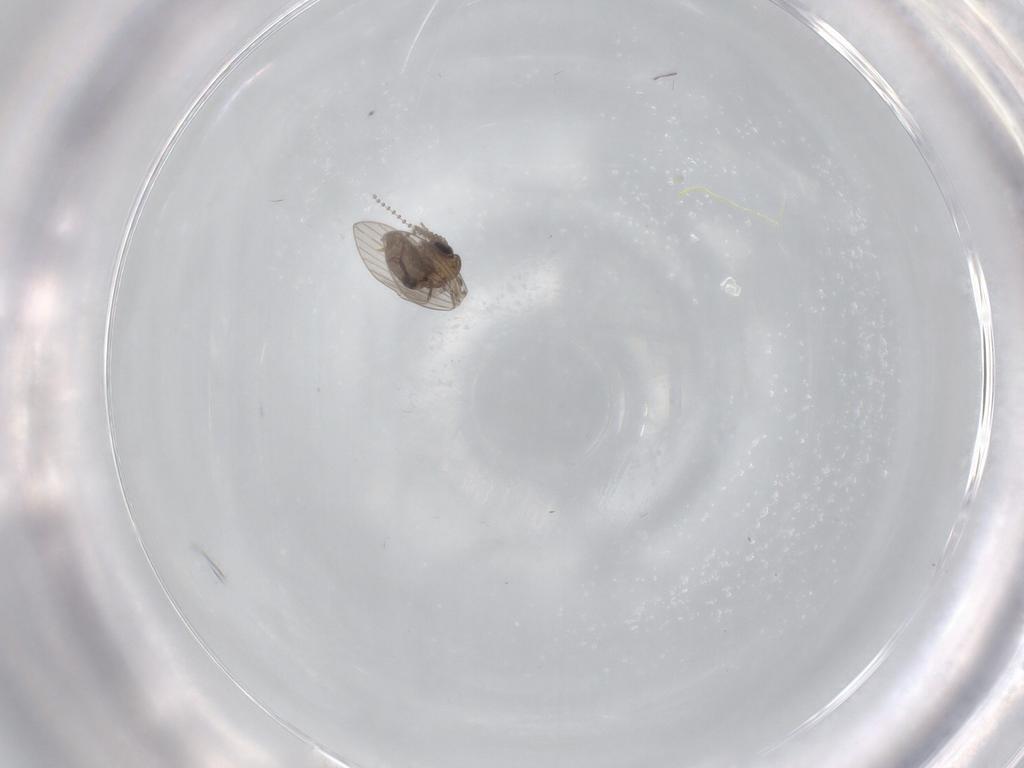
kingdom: Animalia
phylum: Arthropoda
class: Insecta
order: Diptera
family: Psychodidae
